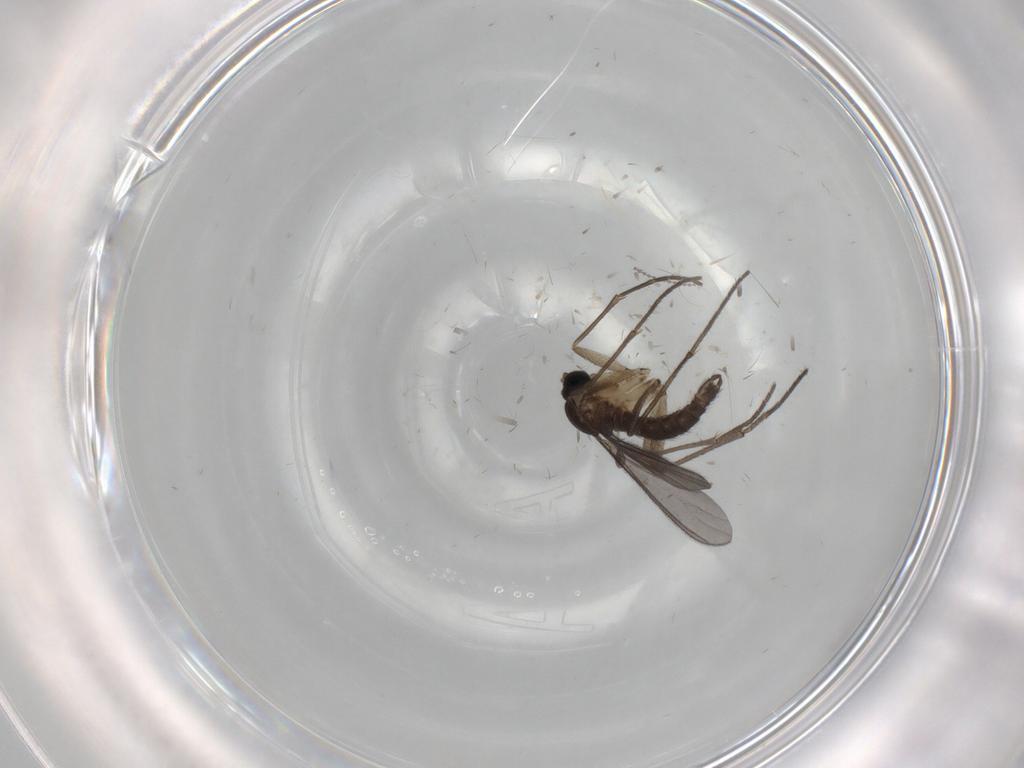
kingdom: Animalia
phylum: Arthropoda
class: Insecta
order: Diptera
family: Sciaridae
